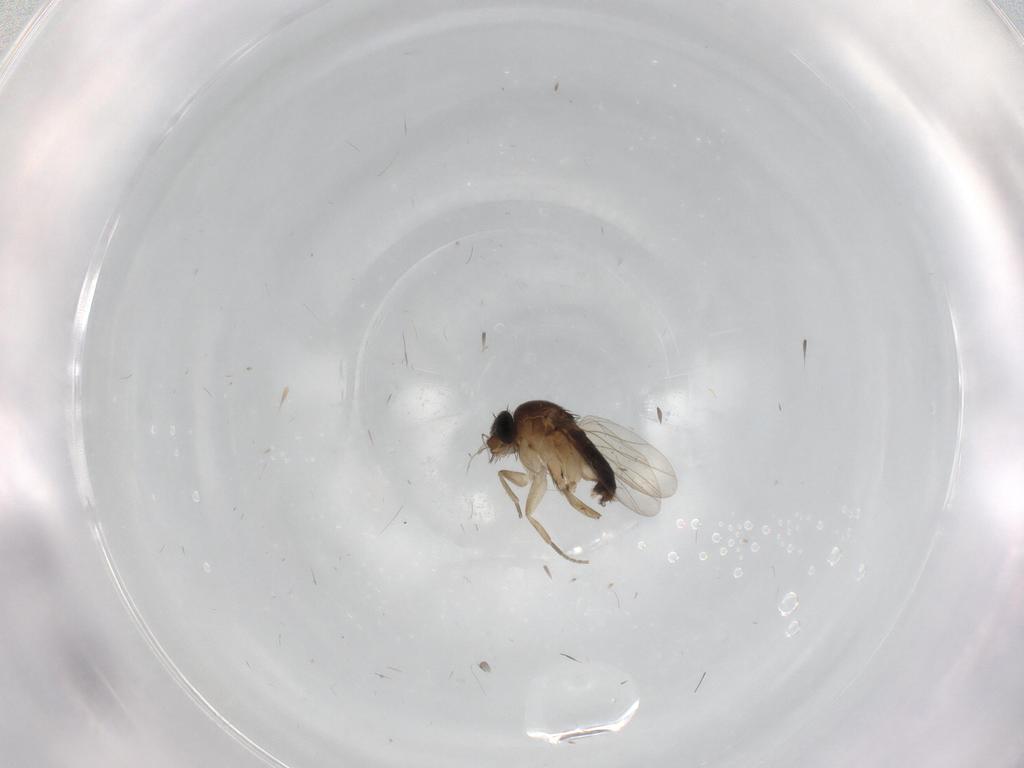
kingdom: Animalia
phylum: Arthropoda
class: Insecta
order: Diptera
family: Phoridae
